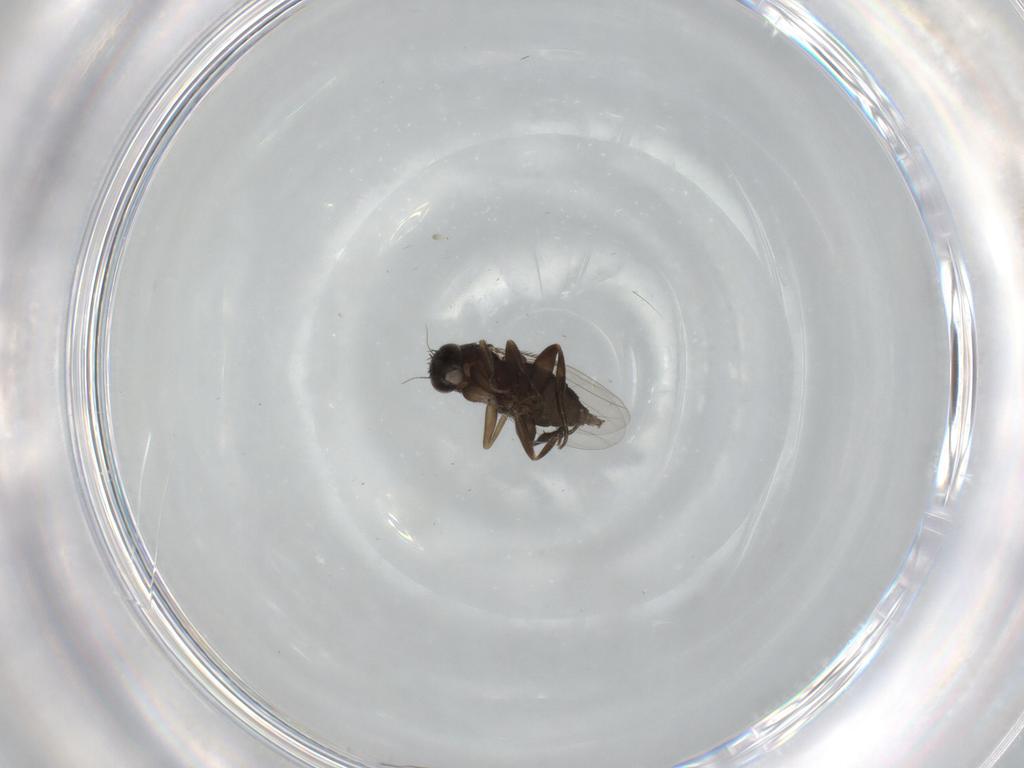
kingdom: Animalia
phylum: Arthropoda
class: Insecta
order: Diptera
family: Phoridae
